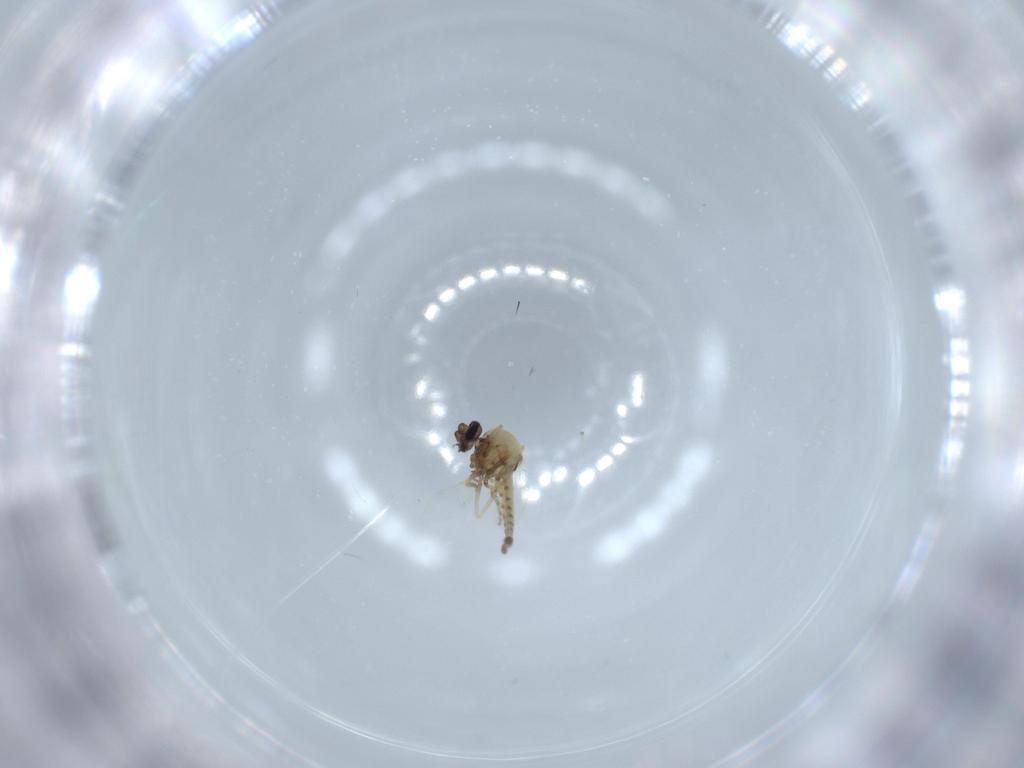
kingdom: Animalia
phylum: Arthropoda
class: Insecta
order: Diptera
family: Ceratopogonidae
